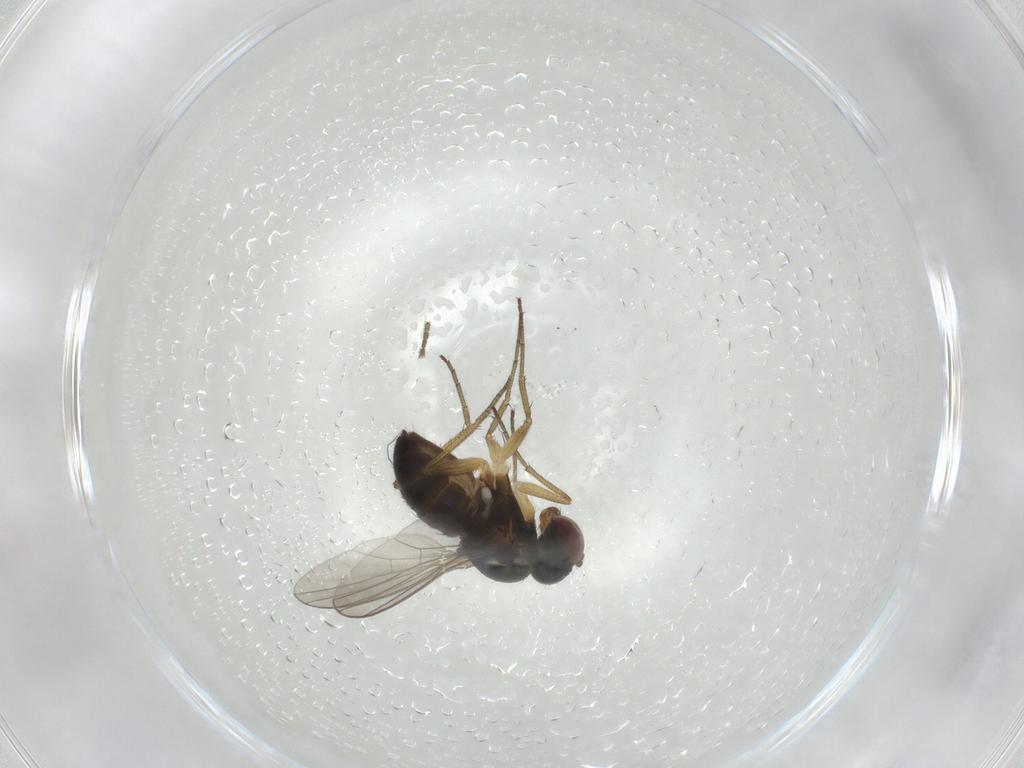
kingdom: Animalia
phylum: Arthropoda
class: Insecta
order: Diptera
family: Dolichopodidae
